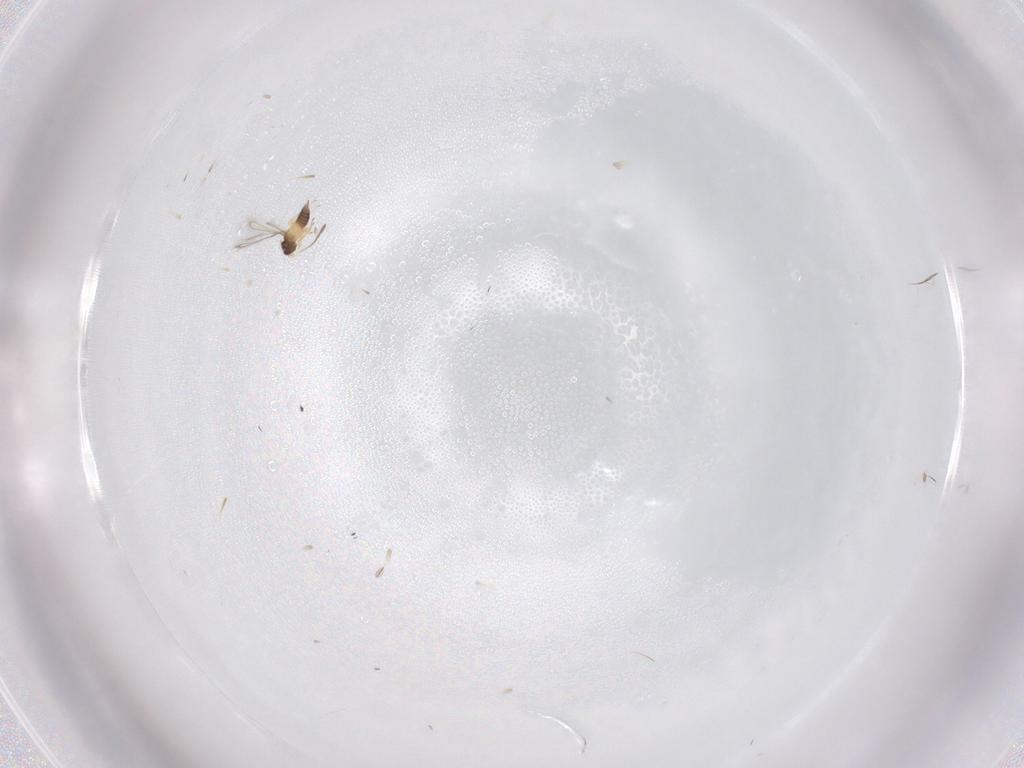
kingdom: Animalia
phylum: Arthropoda
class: Insecta
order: Hymenoptera
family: Mymaridae
